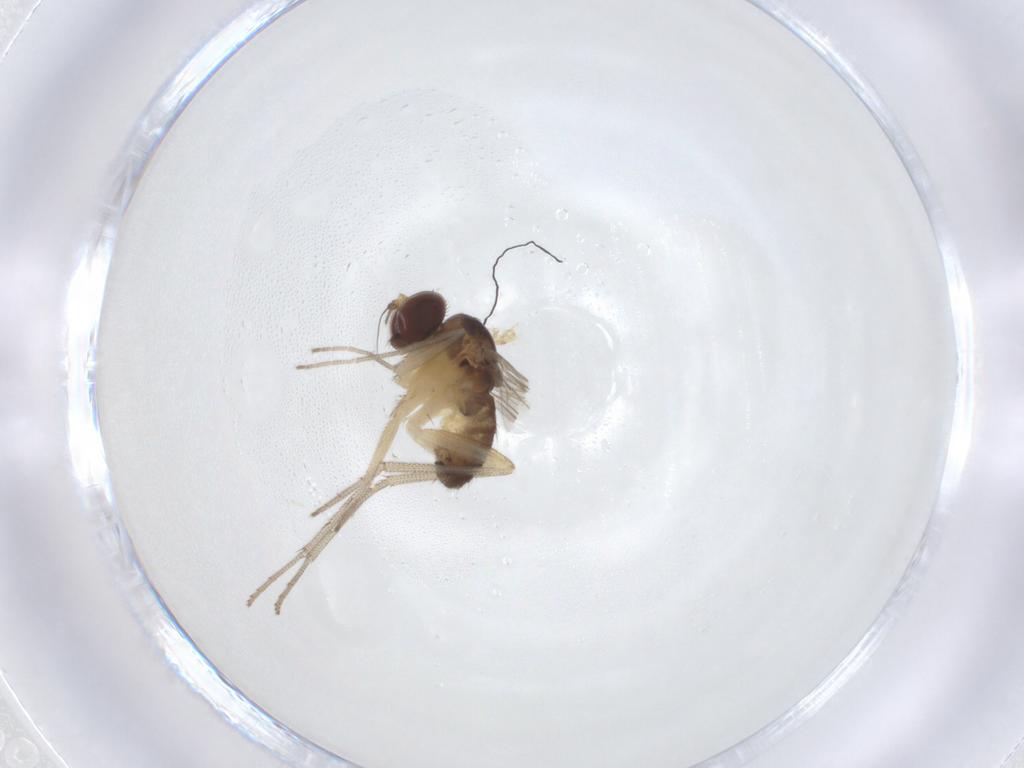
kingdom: Animalia
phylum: Arthropoda
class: Insecta
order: Diptera
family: Dolichopodidae
